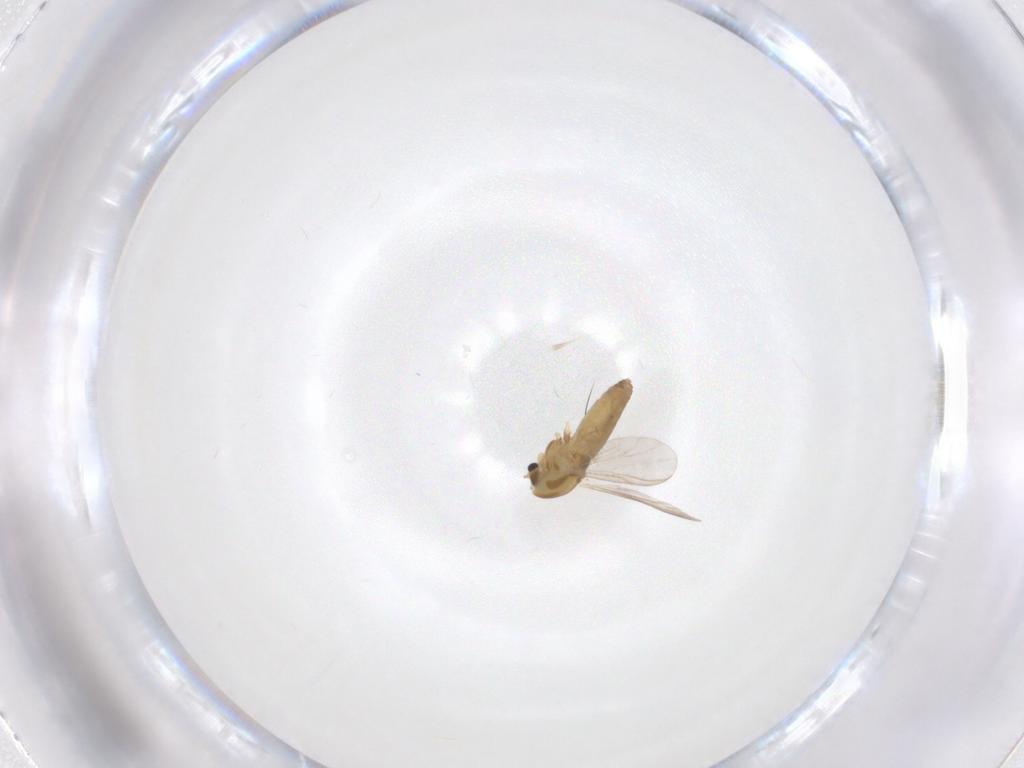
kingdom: Animalia
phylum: Arthropoda
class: Insecta
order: Diptera
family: Chironomidae
